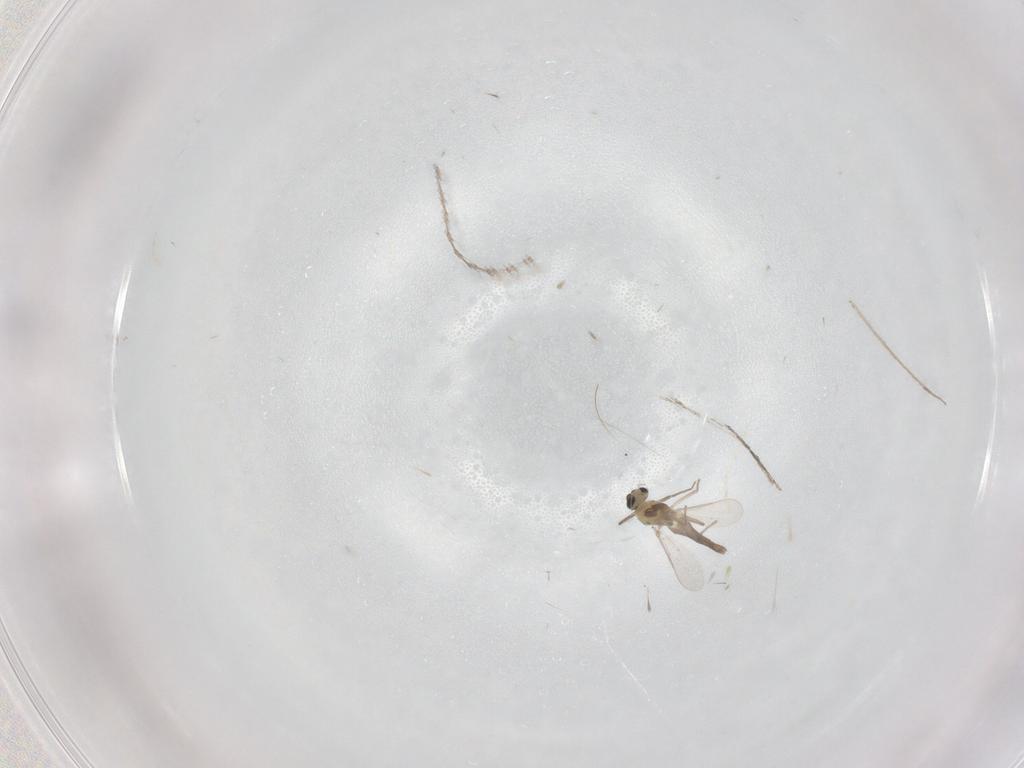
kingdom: Animalia
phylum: Arthropoda
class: Insecta
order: Diptera
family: Chironomidae
